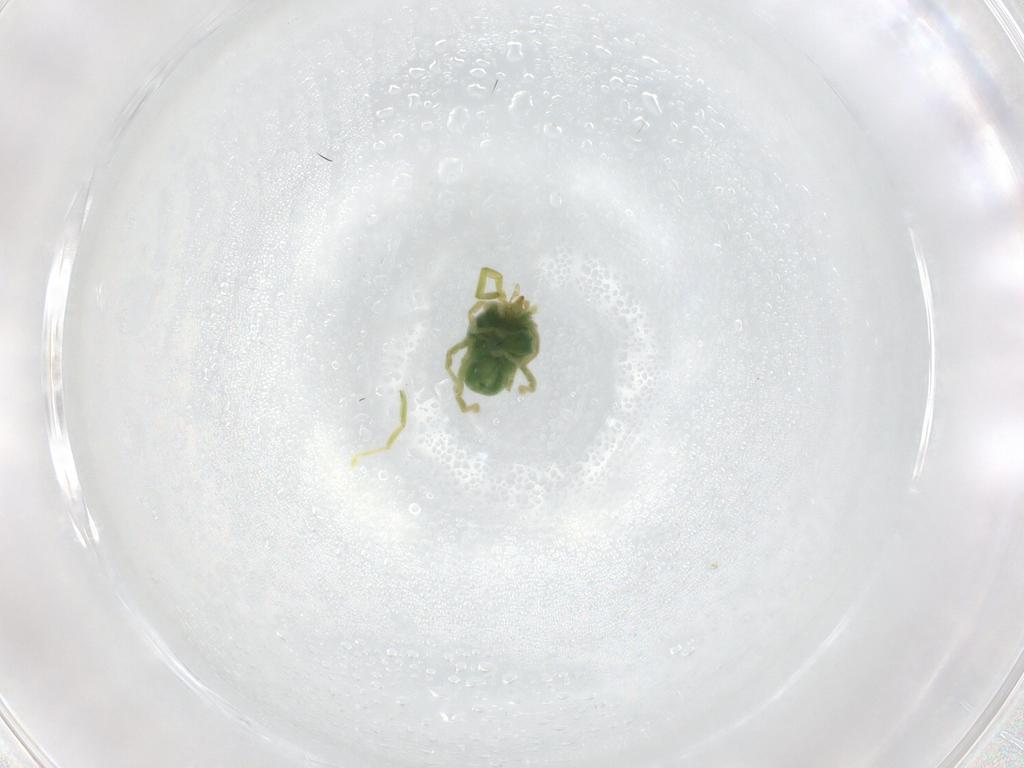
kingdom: Animalia
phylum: Arthropoda
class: Arachnida
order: Trombidiformes
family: Erythraeidae
